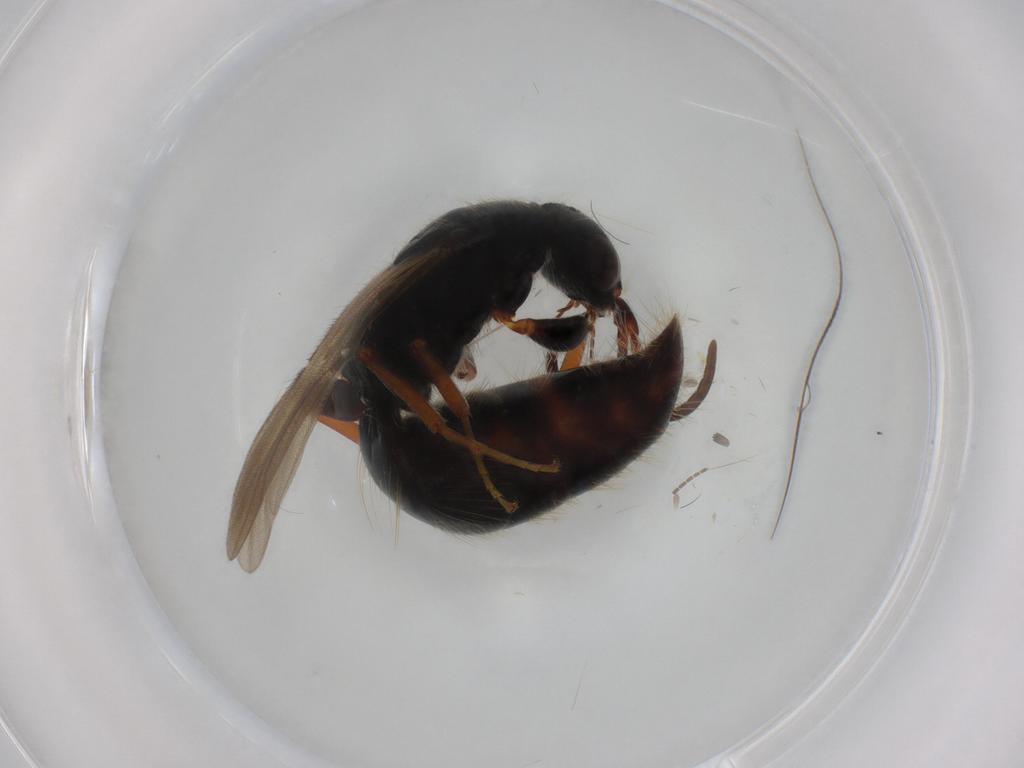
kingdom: Animalia
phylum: Arthropoda
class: Insecta
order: Hymenoptera
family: Bethylidae
